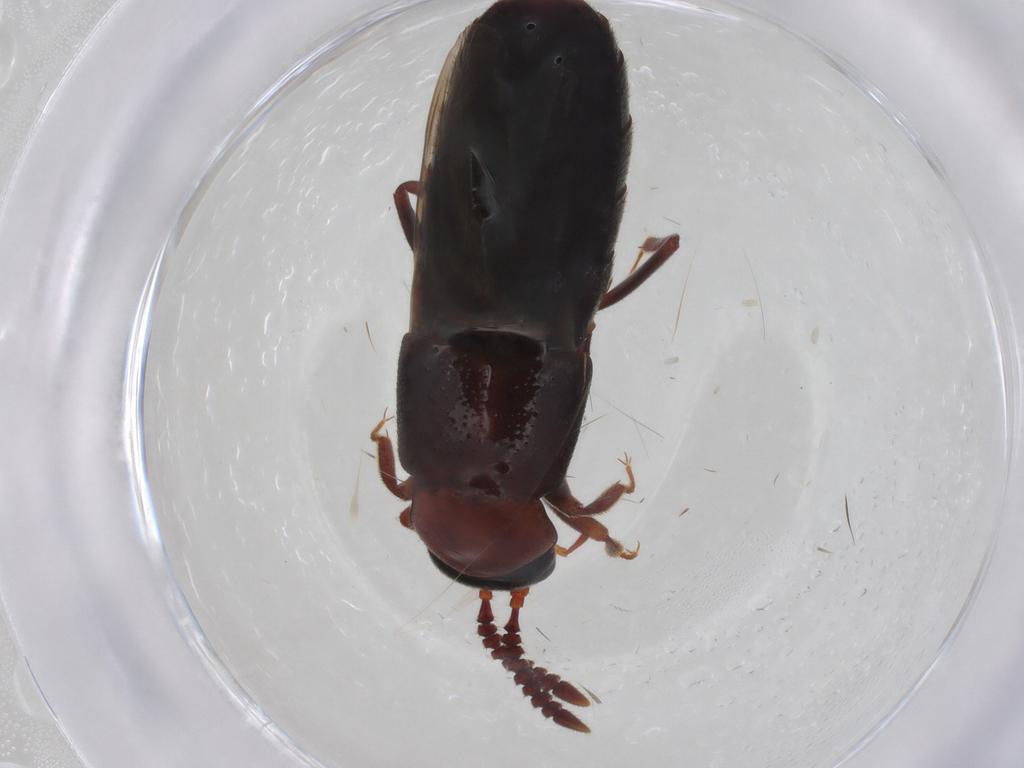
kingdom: Animalia
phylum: Arthropoda
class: Insecta
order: Coleoptera
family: Staphylinidae
